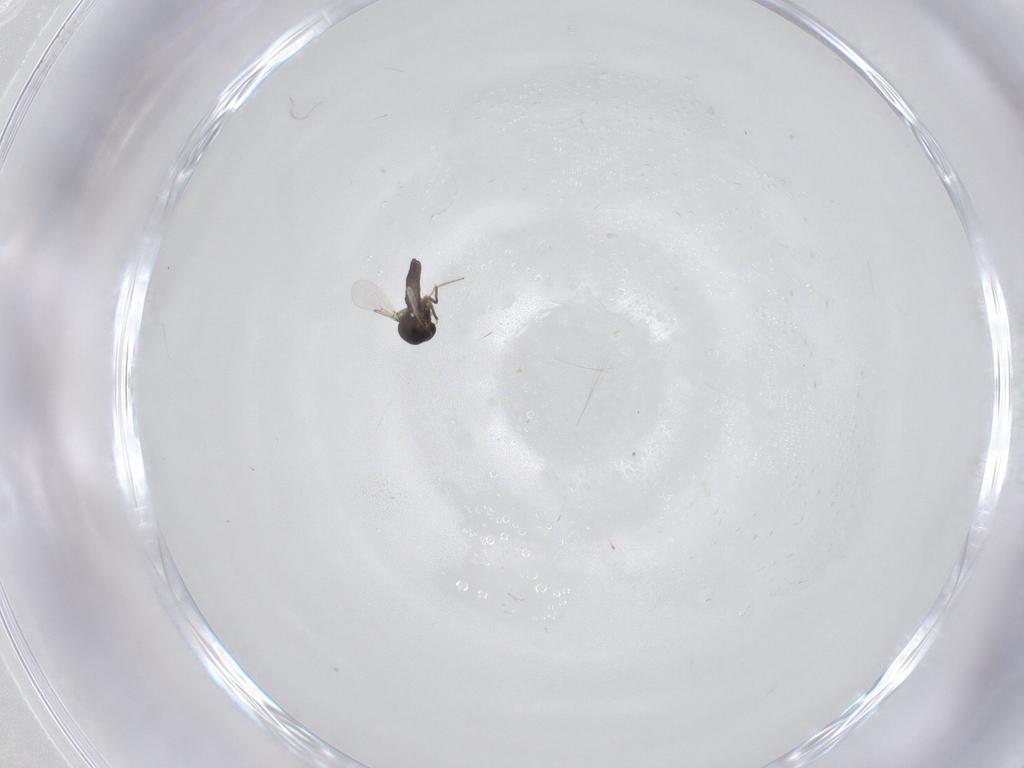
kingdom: Animalia
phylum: Arthropoda
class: Insecta
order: Diptera
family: Ceratopogonidae
